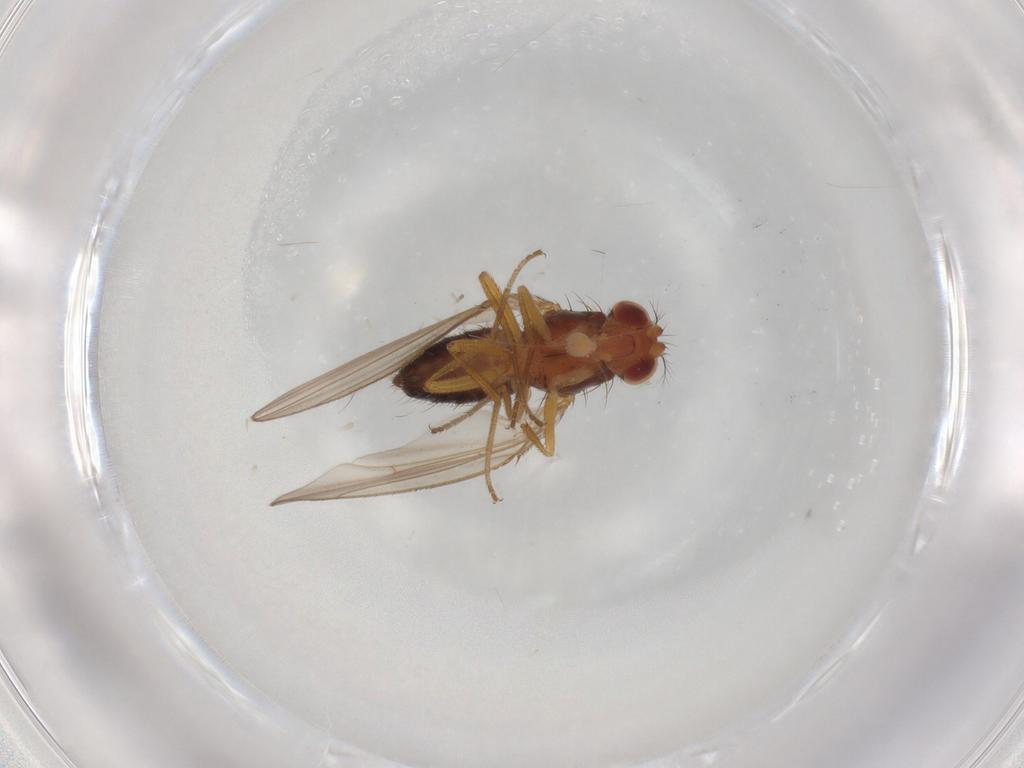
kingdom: Animalia
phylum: Arthropoda
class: Insecta
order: Diptera
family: Drosophilidae
